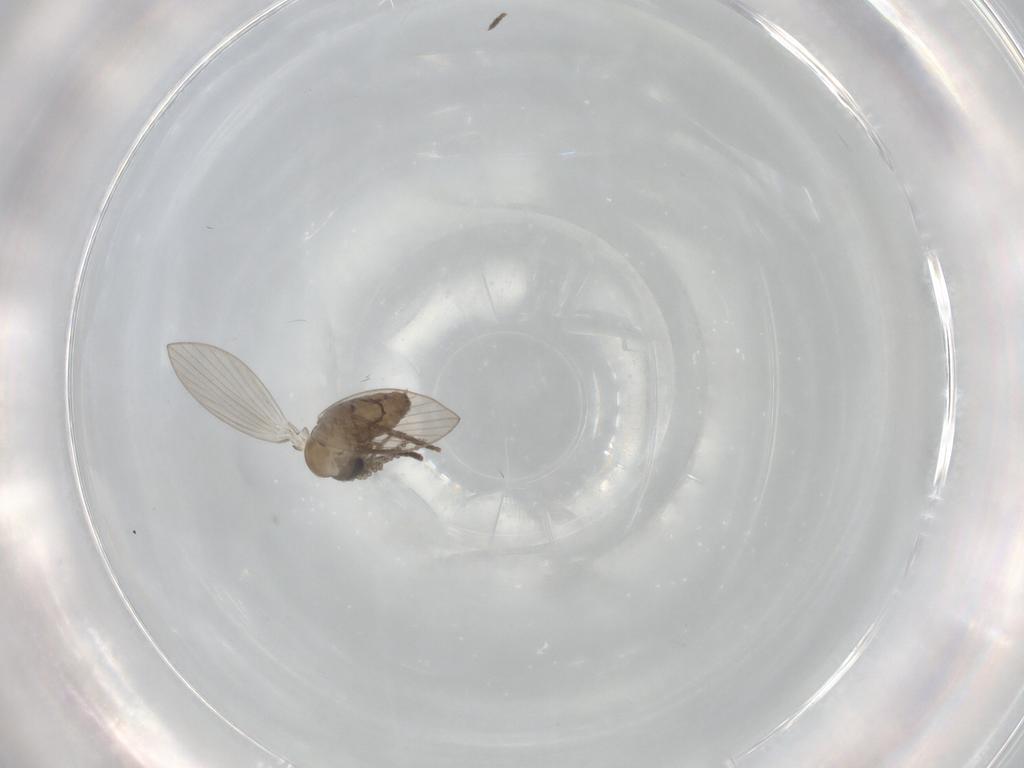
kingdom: Animalia
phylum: Arthropoda
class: Insecta
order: Diptera
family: Psychodidae
